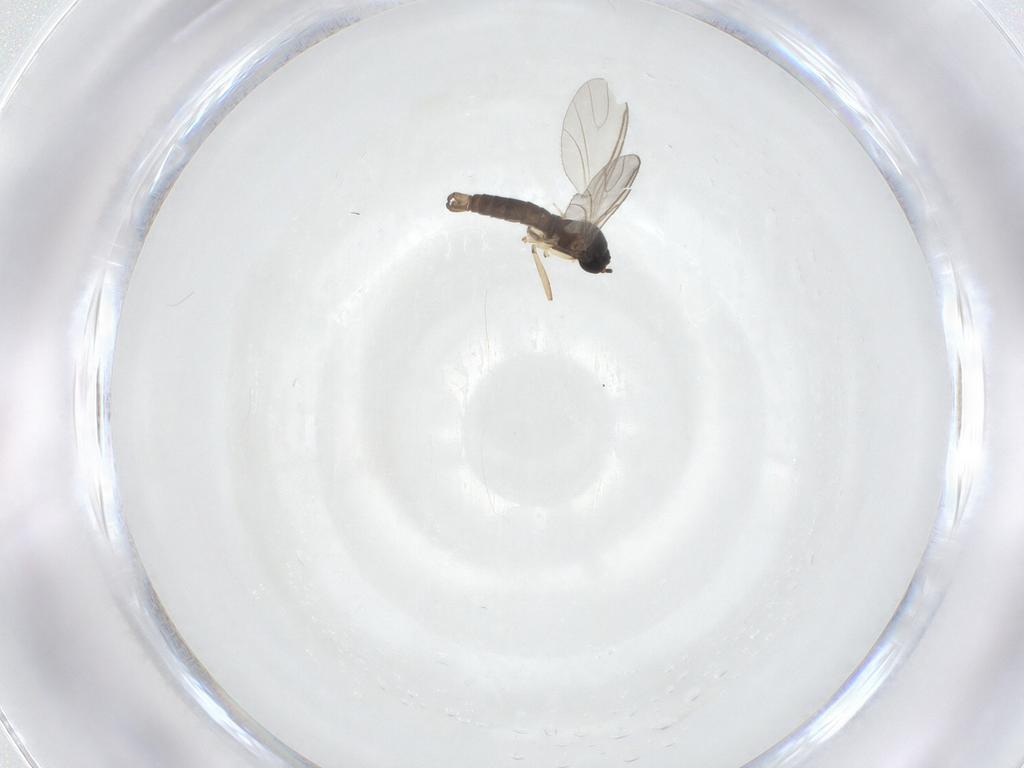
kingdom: Animalia
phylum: Arthropoda
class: Insecta
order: Diptera
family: Sciaridae
